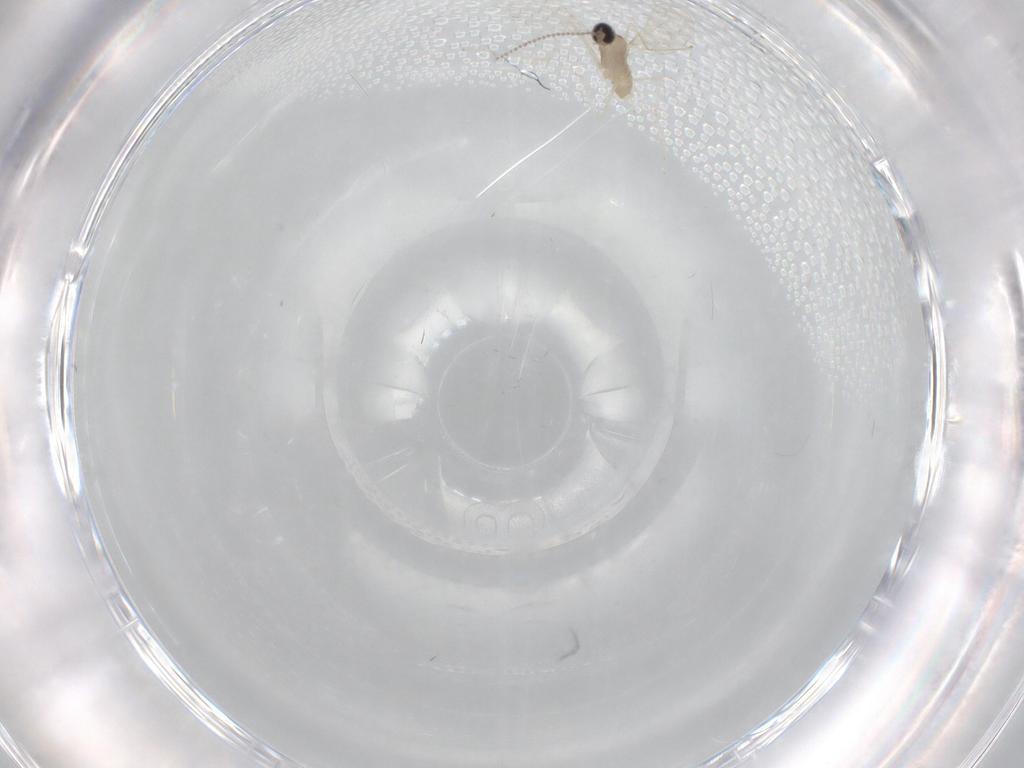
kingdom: Animalia
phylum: Arthropoda
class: Insecta
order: Diptera
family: Cecidomyiidae
